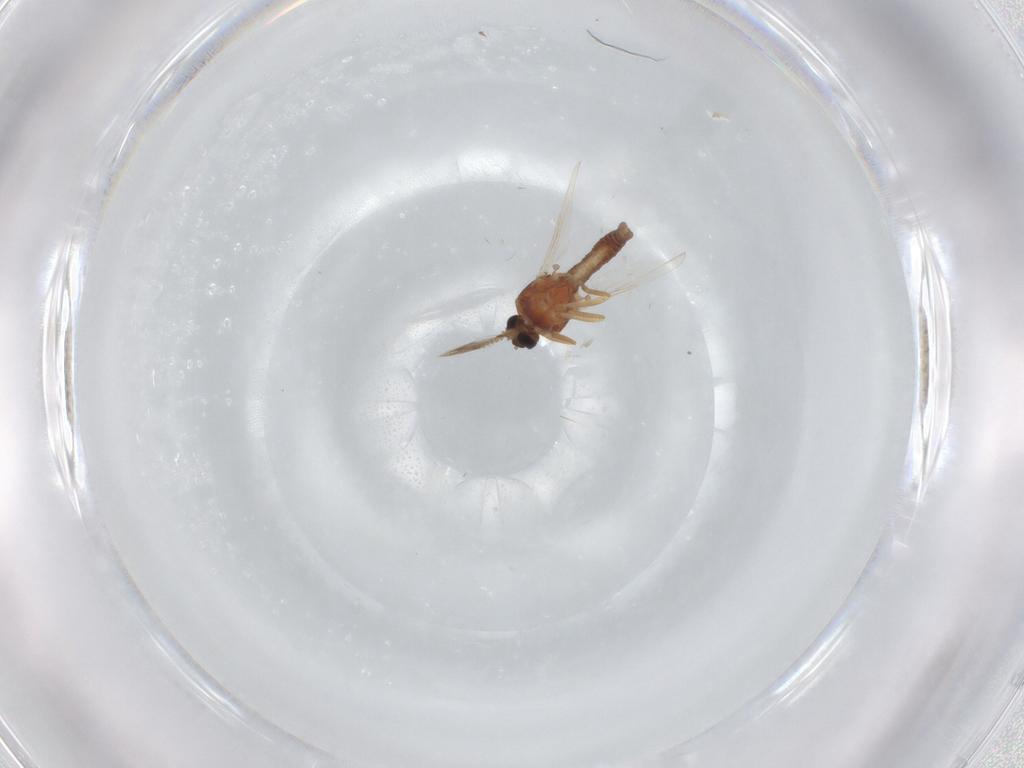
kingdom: Animalia
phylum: Arthropoda
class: Insecta
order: Diptera
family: Ceratopogonidae
